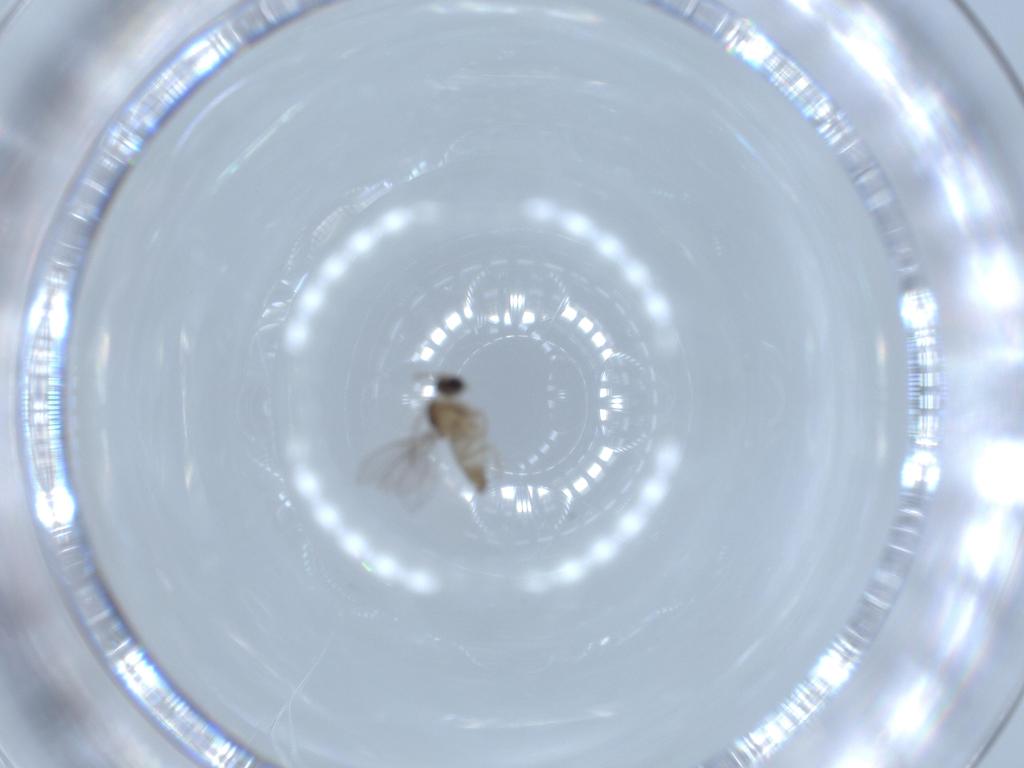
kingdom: Animalia
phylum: Arthropoda
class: Insecta
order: Diptera
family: Cecidomyiidae
